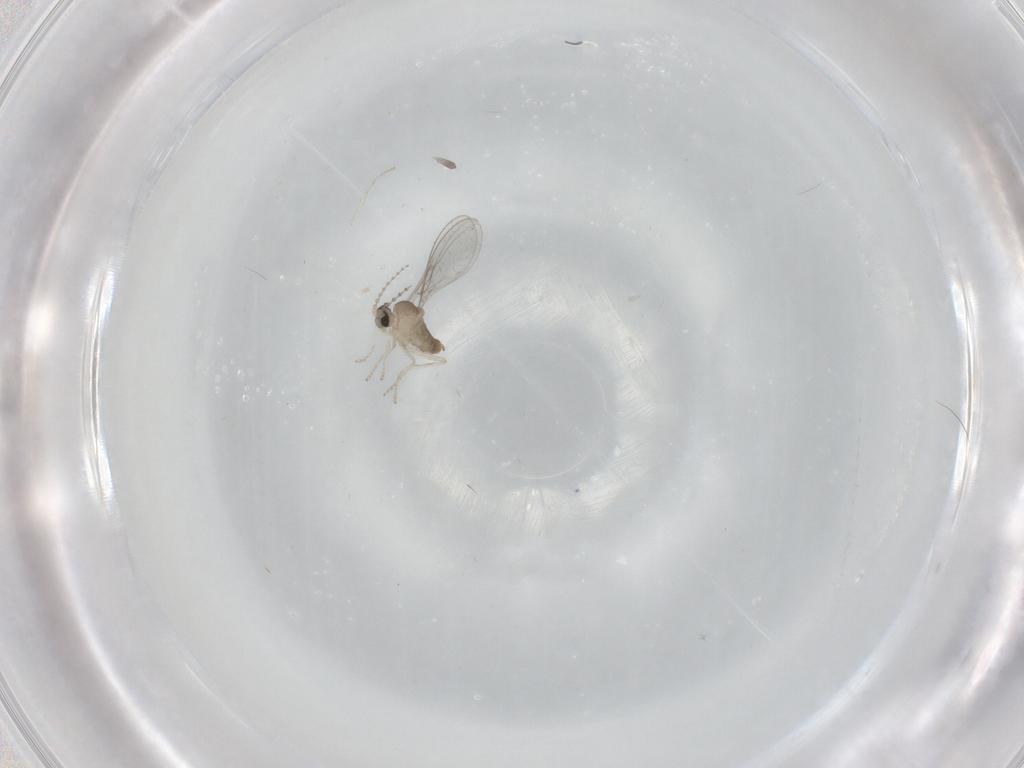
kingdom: Animalia
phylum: Arthropoda
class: Insecta
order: Diptera
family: Cecidomyiidae
